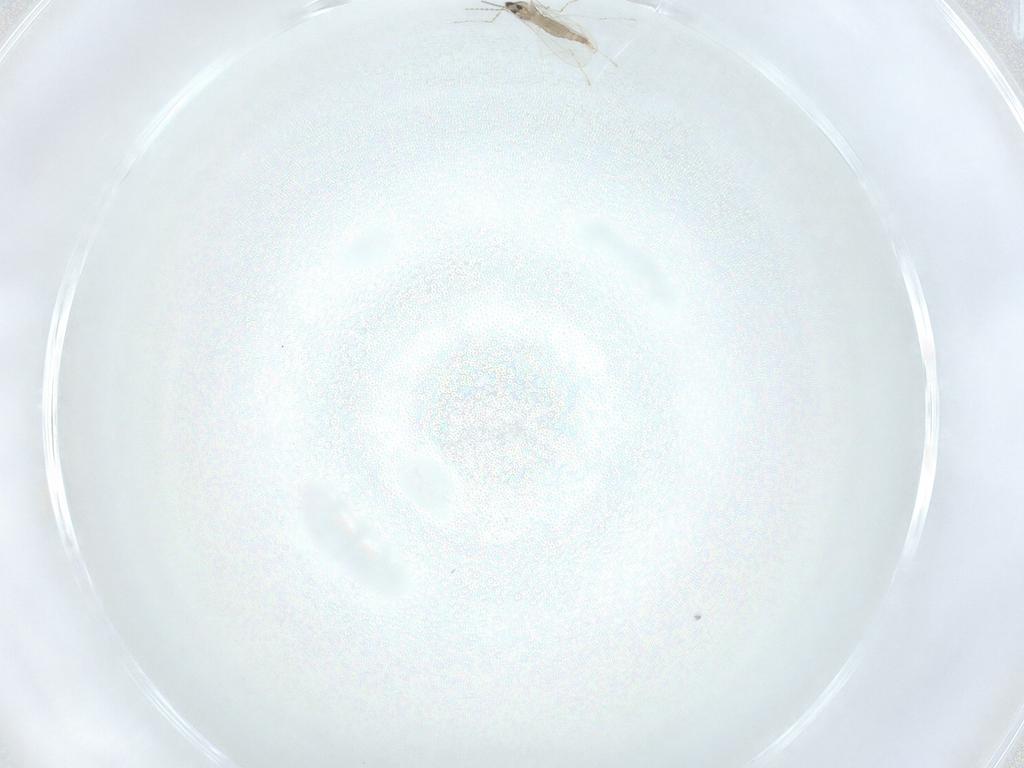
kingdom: Animalia
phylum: Arthropoda
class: Insecta
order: Diptera
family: Cecidomyiidae
